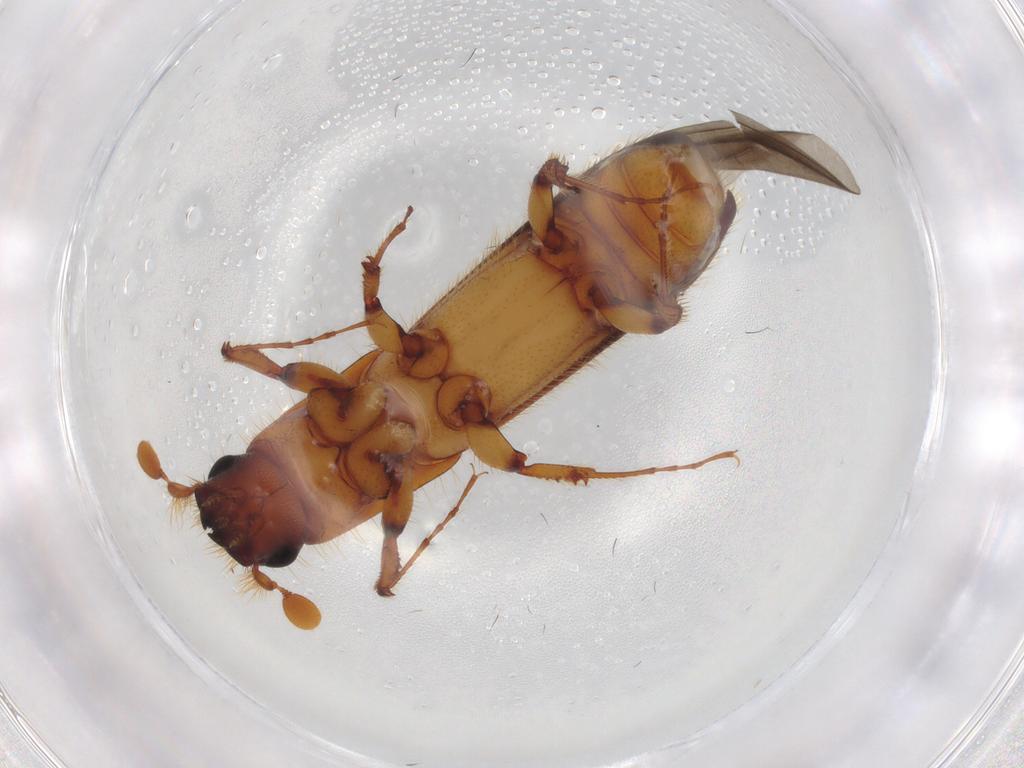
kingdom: Animalia
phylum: Arthropoda
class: Insecta
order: Coleoptera
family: Curculionidae
